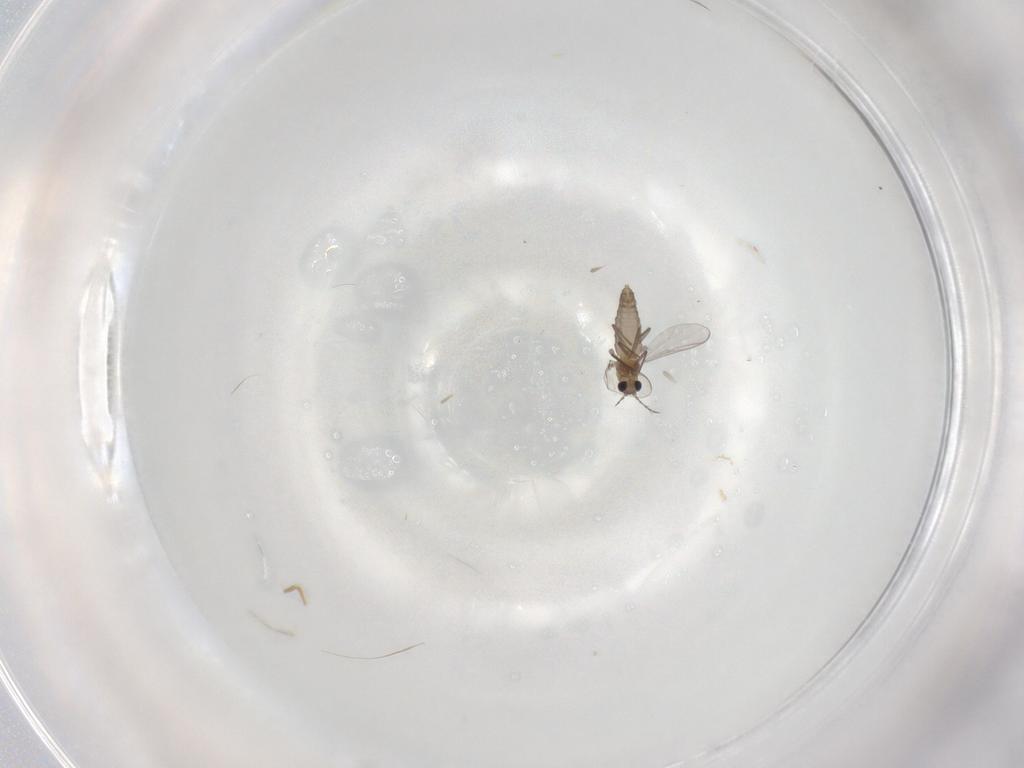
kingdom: Animalia
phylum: Arthropoda
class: Insecta
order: Diptera
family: Chironomidae
